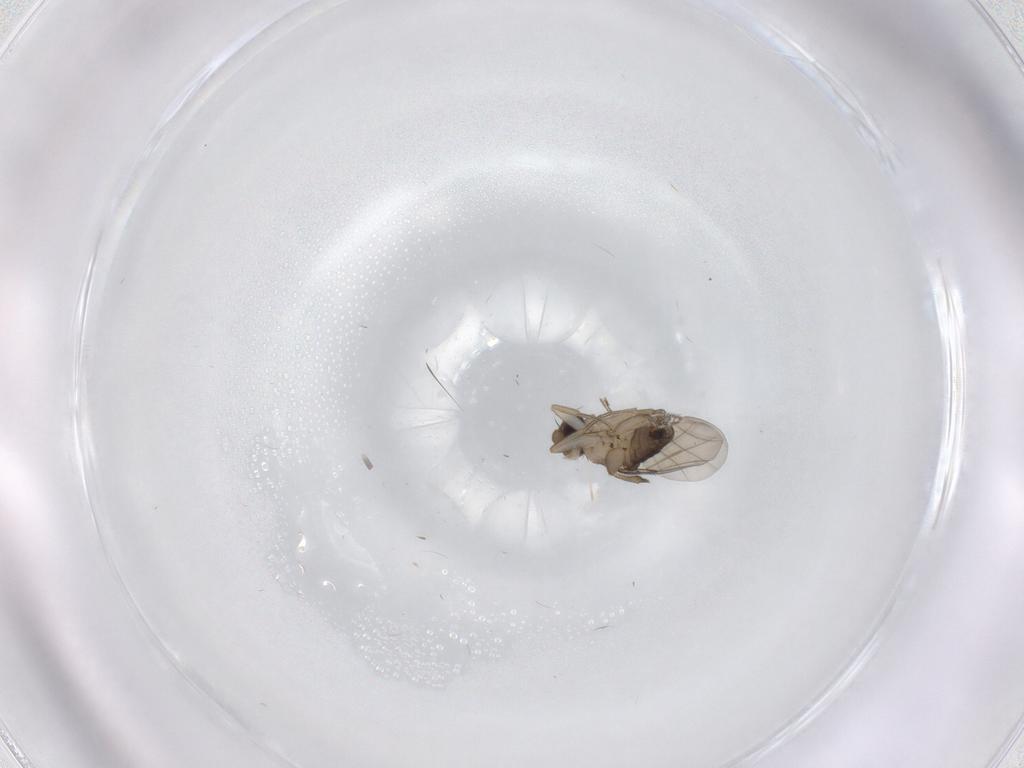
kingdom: Animalia
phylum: Arthropoda
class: Insecta
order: Diptera
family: Phoridae
